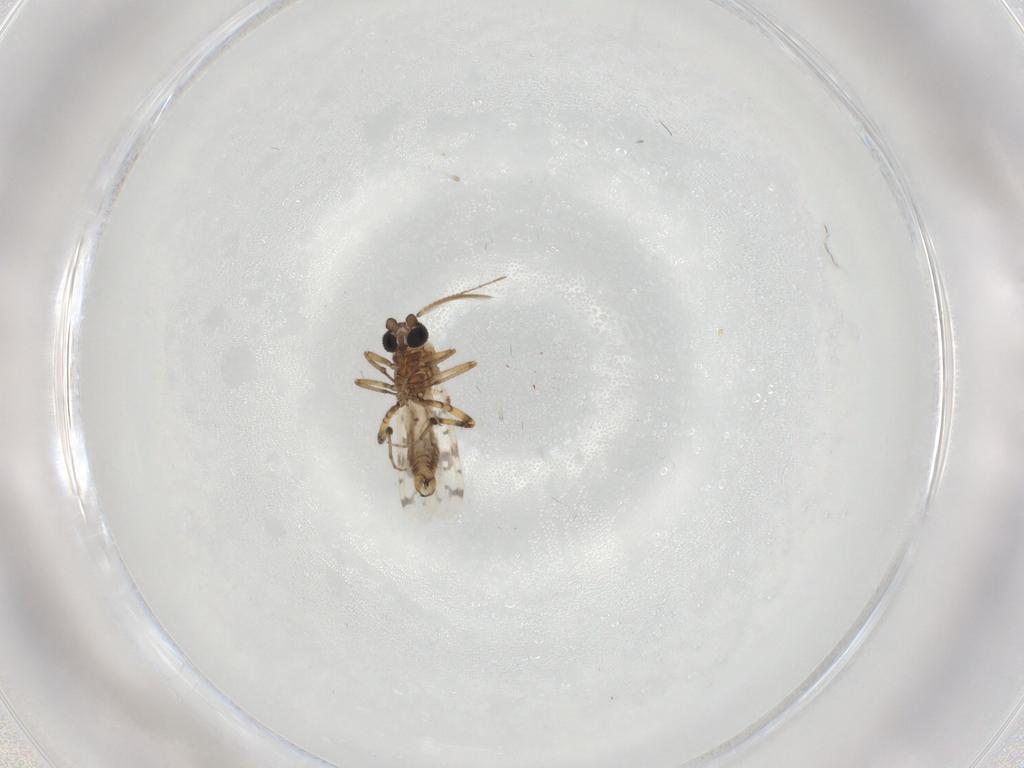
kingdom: Animalia
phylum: Arthropoda
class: Insecta
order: Diptera
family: Ceratopogonidae
